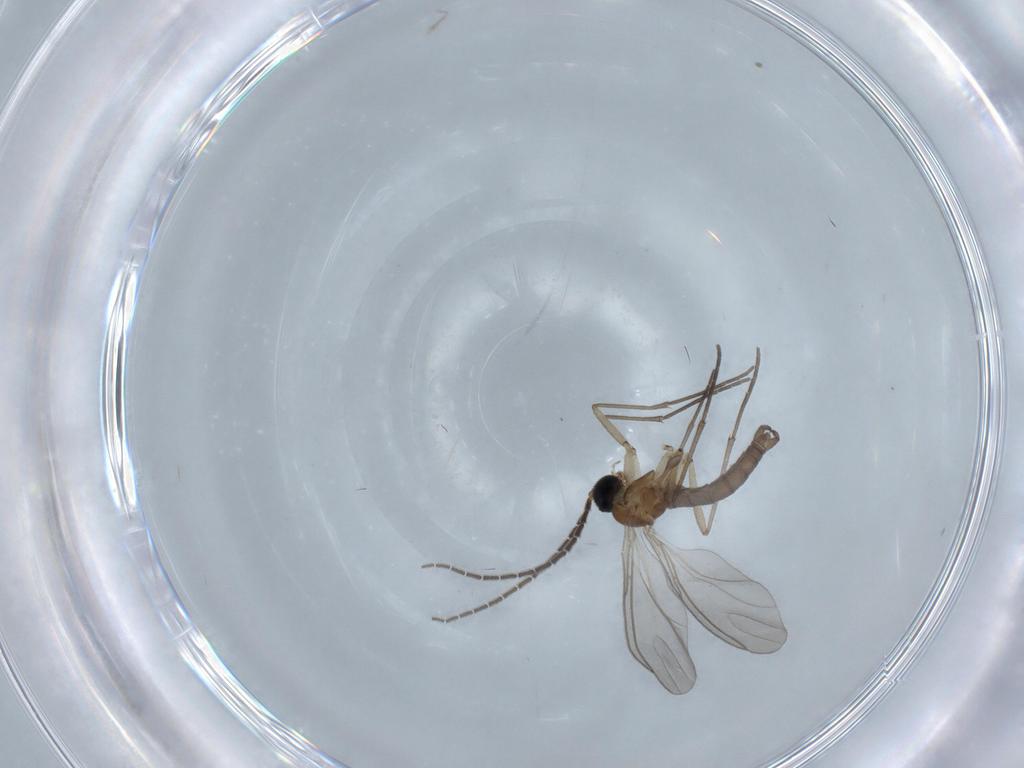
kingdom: Animalia
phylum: Arthropoda
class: Insecta
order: Diptera
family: Sciaridae
